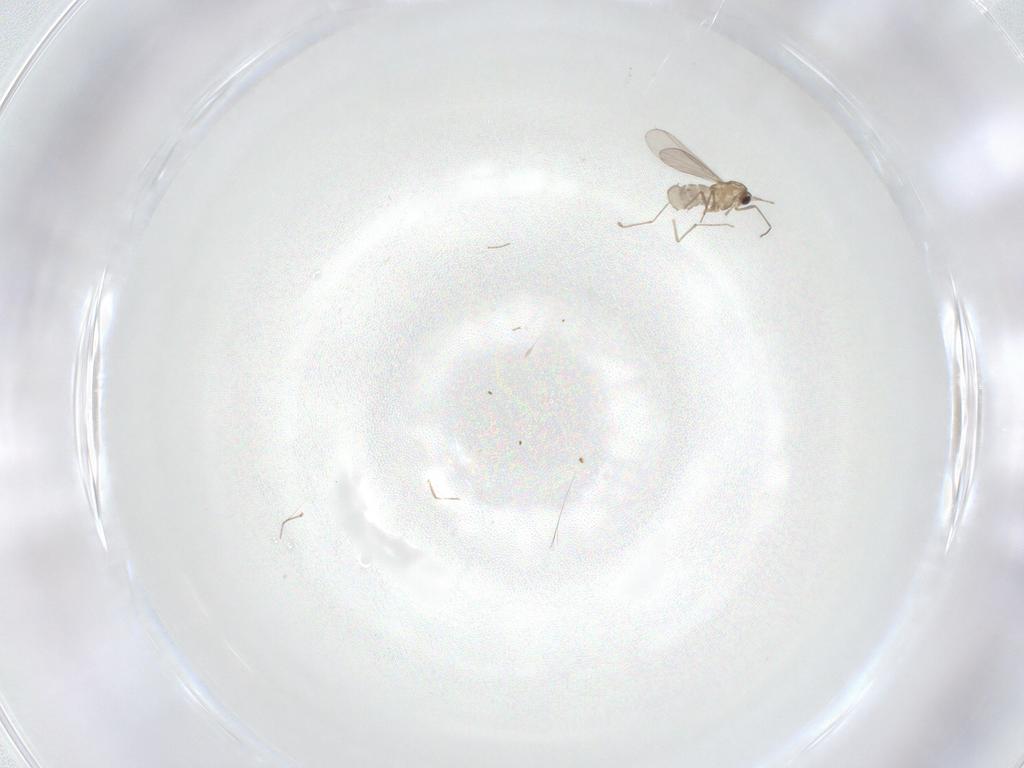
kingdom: Animalia
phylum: Arthropoda
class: Insecta
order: Diptera
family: Chironomidae
